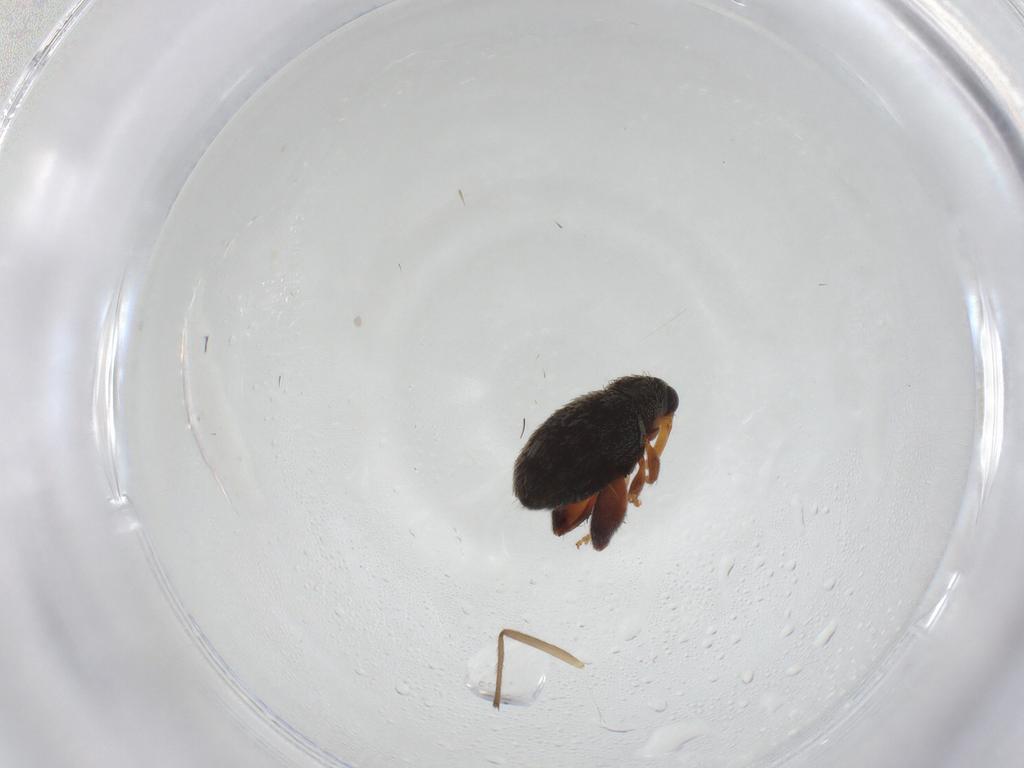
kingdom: Animalia
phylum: Arthropoda
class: Insecta
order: Coleoptera
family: Curculionidae
